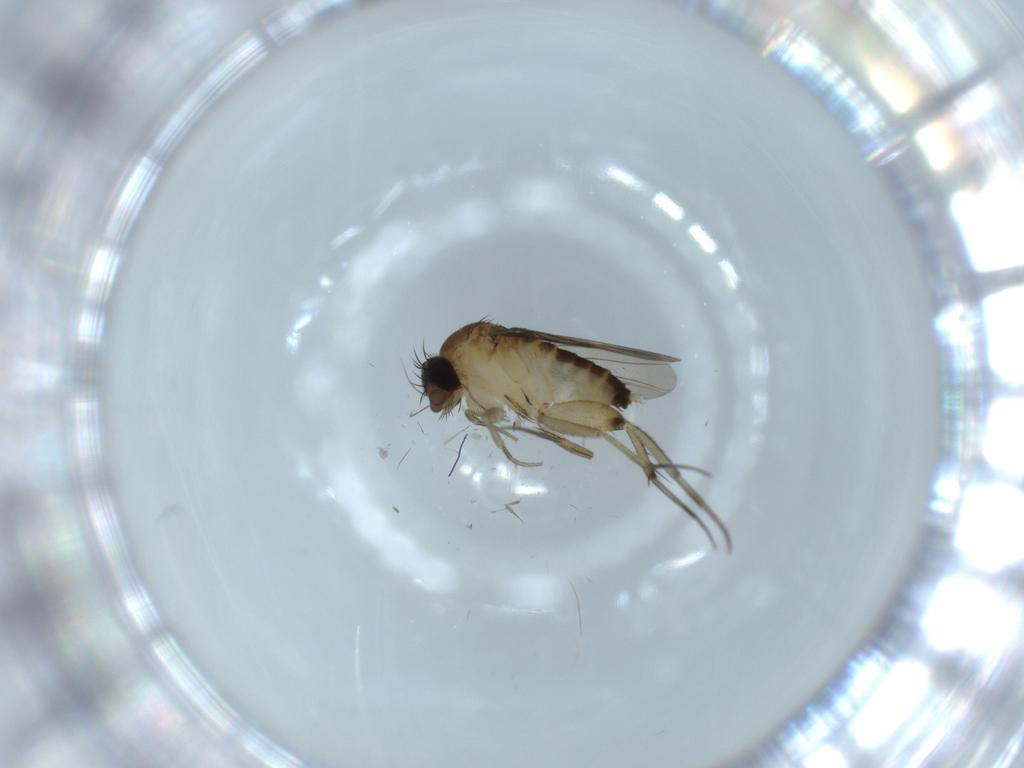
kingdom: Animalia
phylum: Arthropoda
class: Insecta
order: Diptera
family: Phoridae
